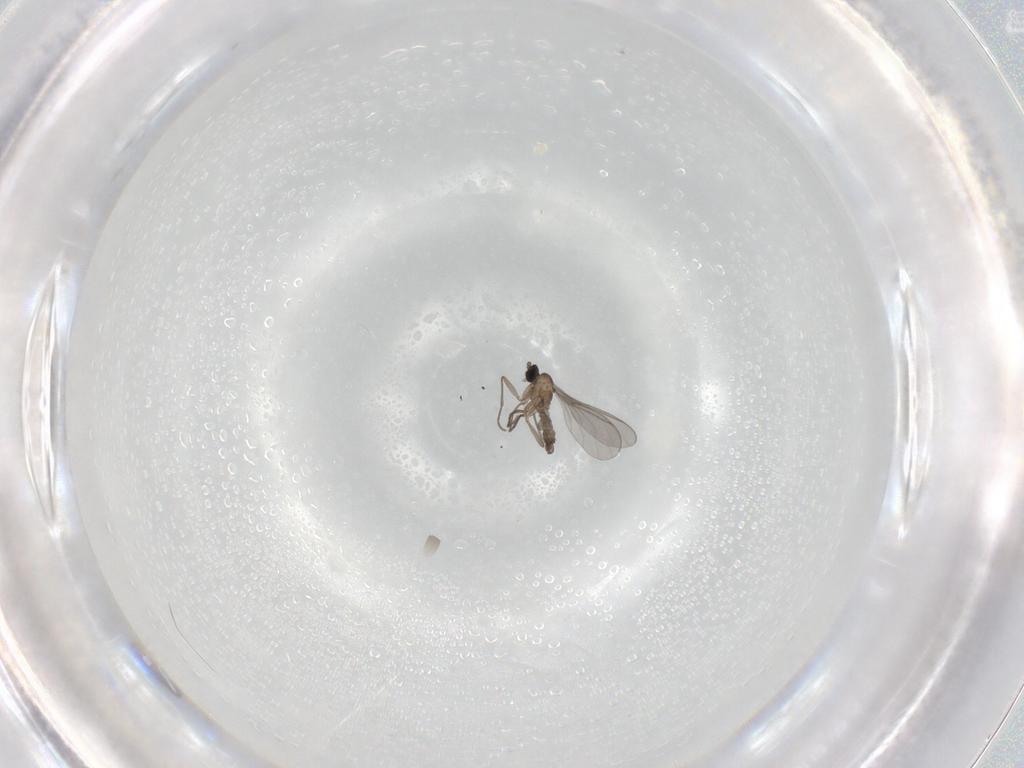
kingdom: Animalia
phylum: Arthropoda
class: Insecta
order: Diptera
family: Sciaridae
